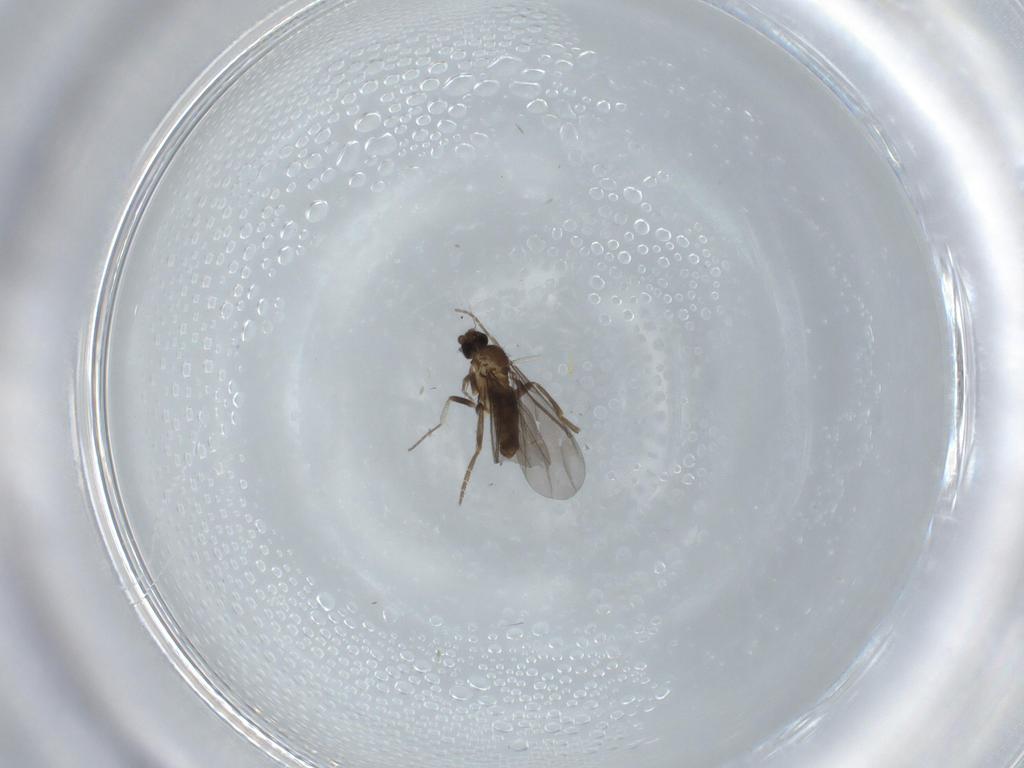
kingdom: Animalia
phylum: Arthropoda
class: Insecta
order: Diptera
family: Phoridae
